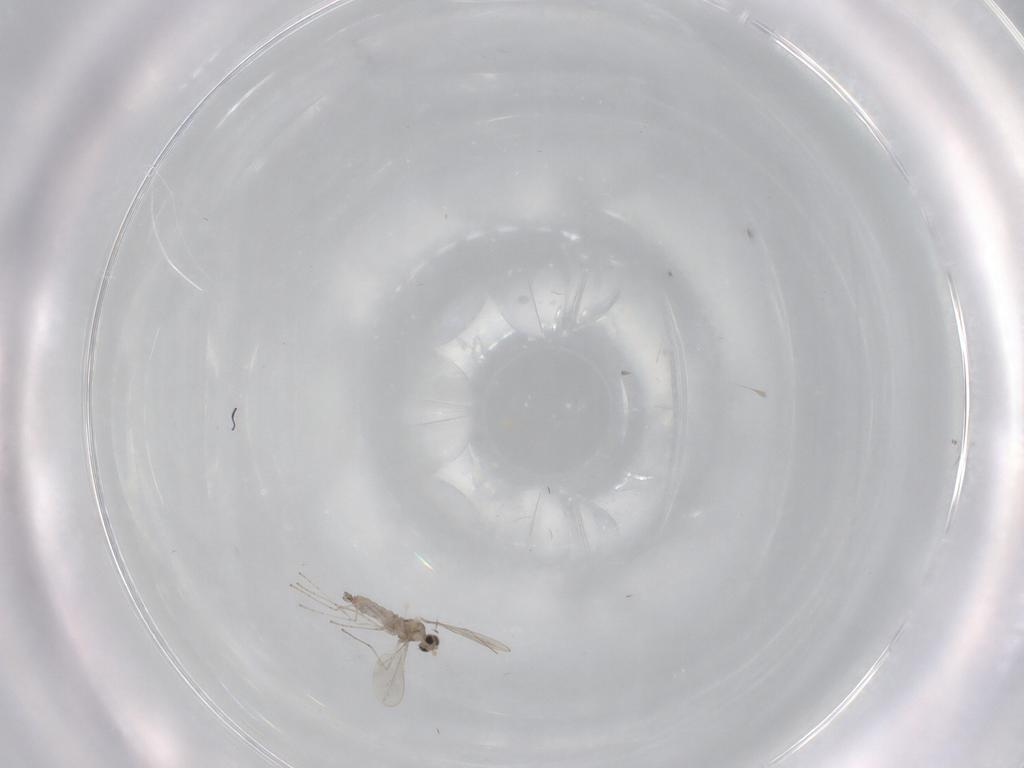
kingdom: Animalia
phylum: Arthropoda
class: Insecta
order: Diptera
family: Cecidomyiidae
